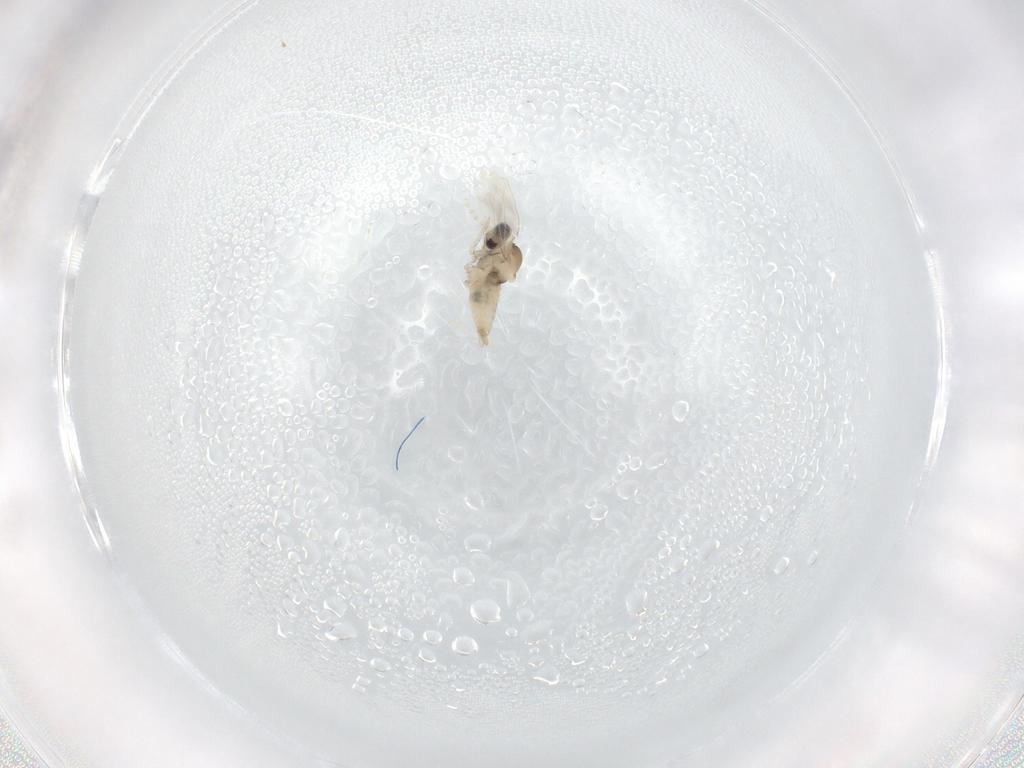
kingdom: Animalia
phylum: Arthropoda
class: Insecta
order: Diptera
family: Cecidomyiidae
